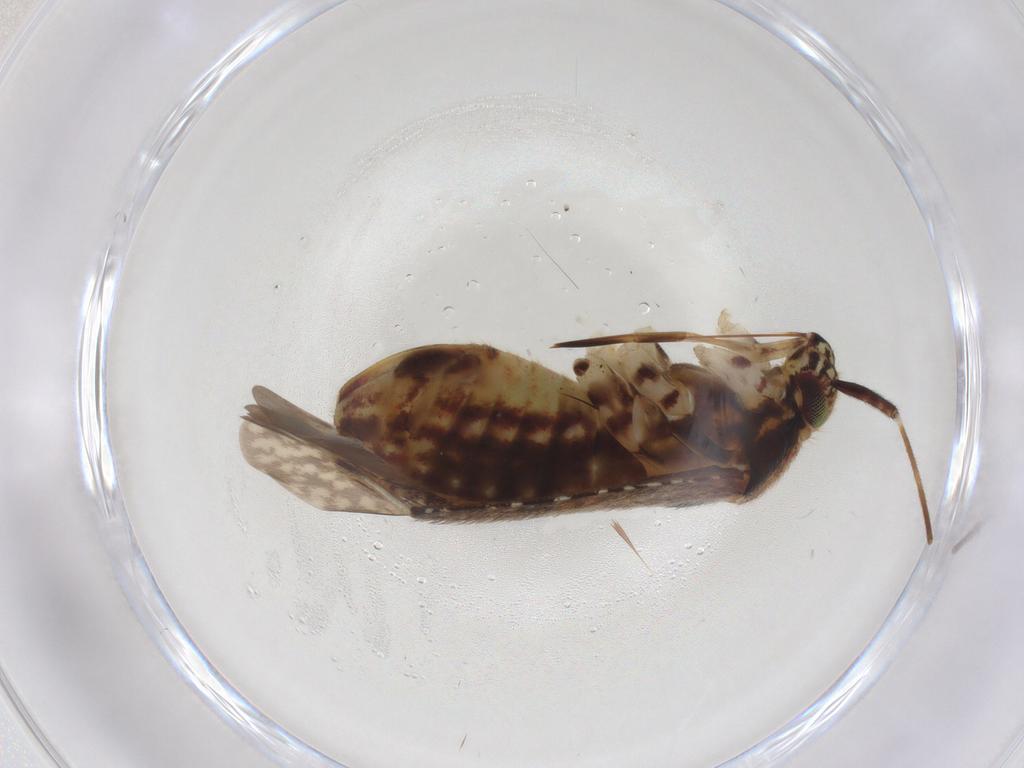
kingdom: Animalia
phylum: Arthropoda
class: Insecta
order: Hemiptera
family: Miridae
